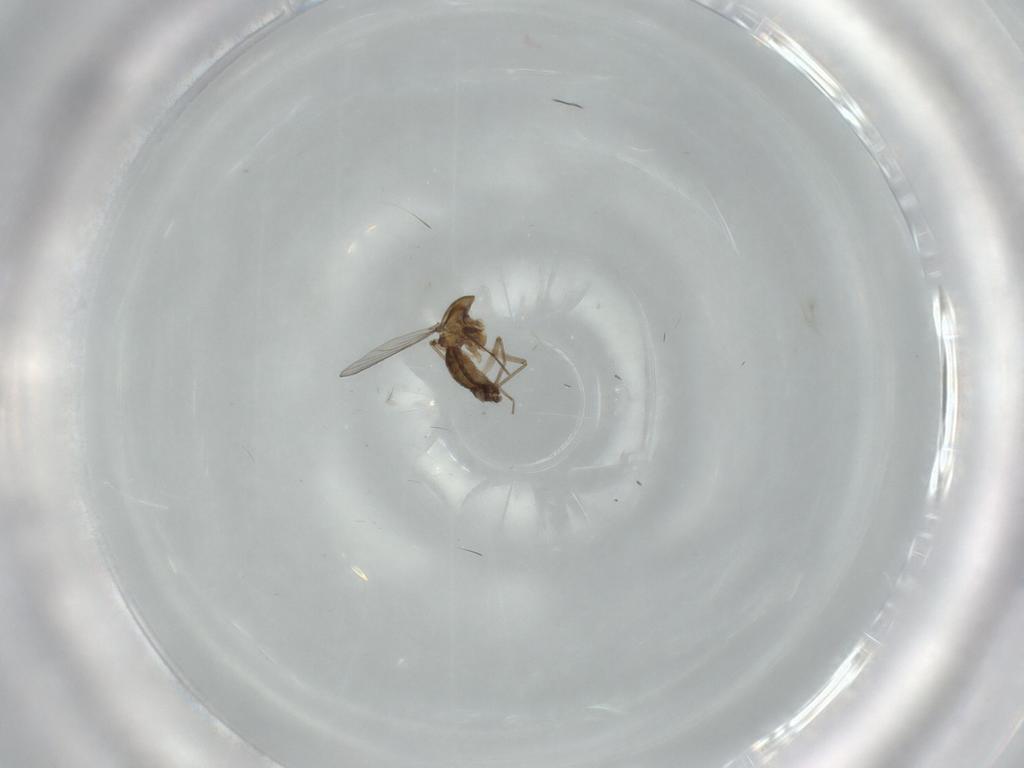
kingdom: Animalia
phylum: Arthropoda
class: Insecta
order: Diptera
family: Chironomidae
